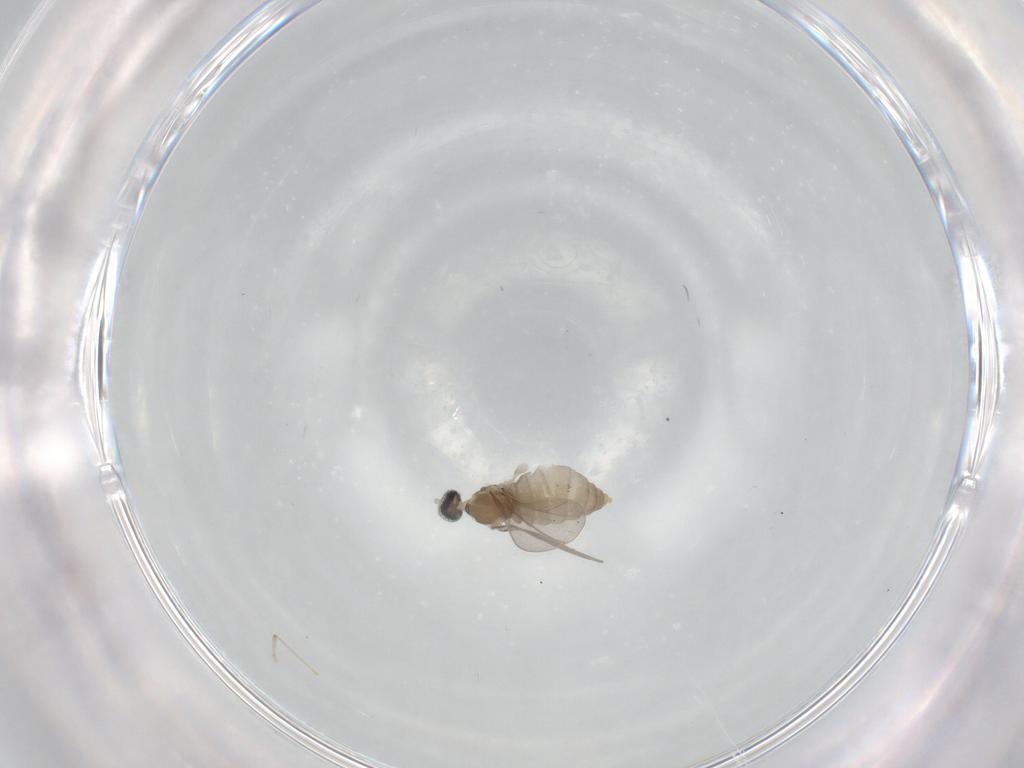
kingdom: Animalia
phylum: Arthropoda
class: Insecta
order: Diptera
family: Cecidomyiidae
